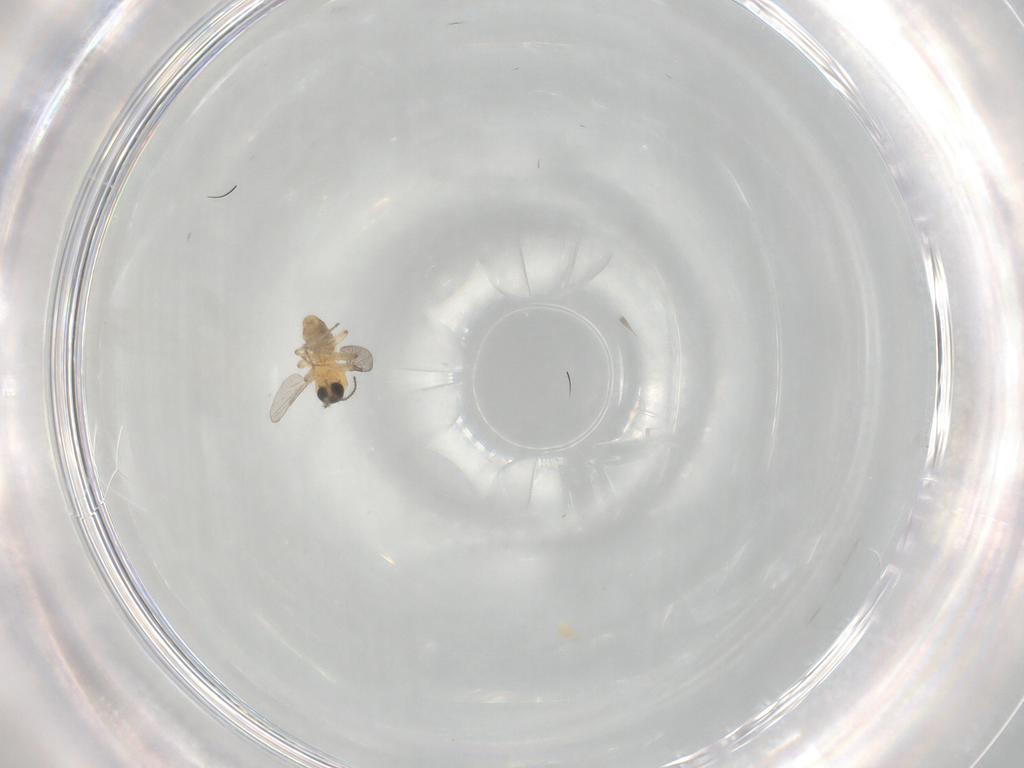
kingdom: Animalia
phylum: Arthropoda
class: Insecta
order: Diptera
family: Ceratopogonidae
